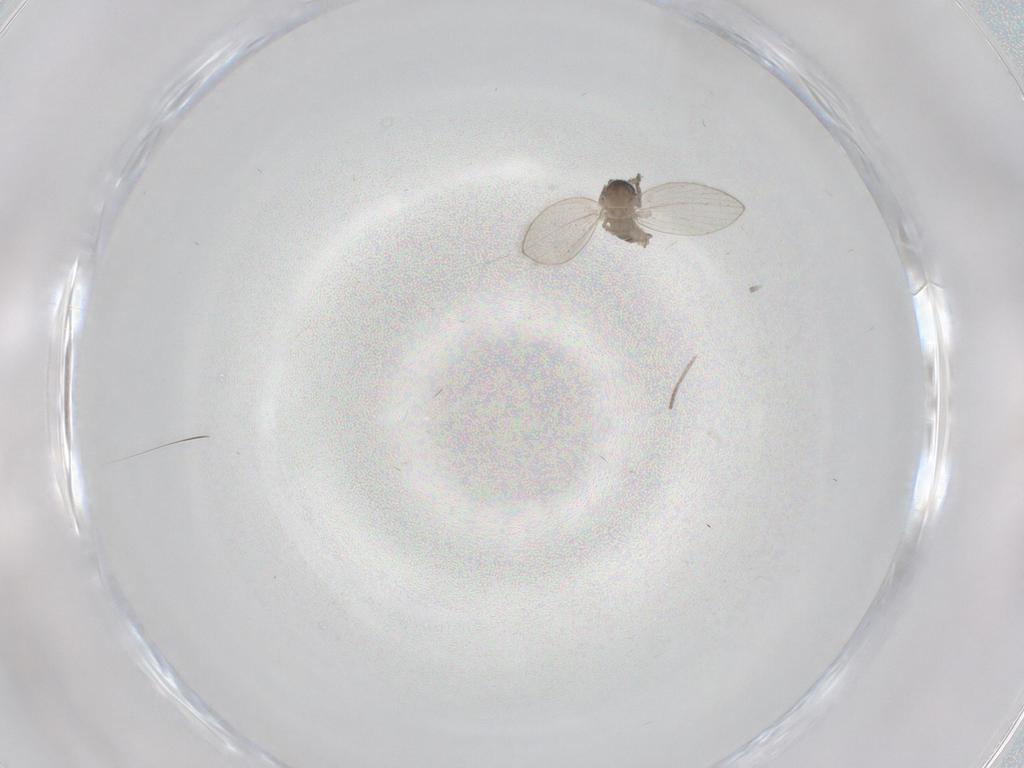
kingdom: Animalia
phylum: Arthropoda
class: Insecta
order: Diptera
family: Psychodidae
